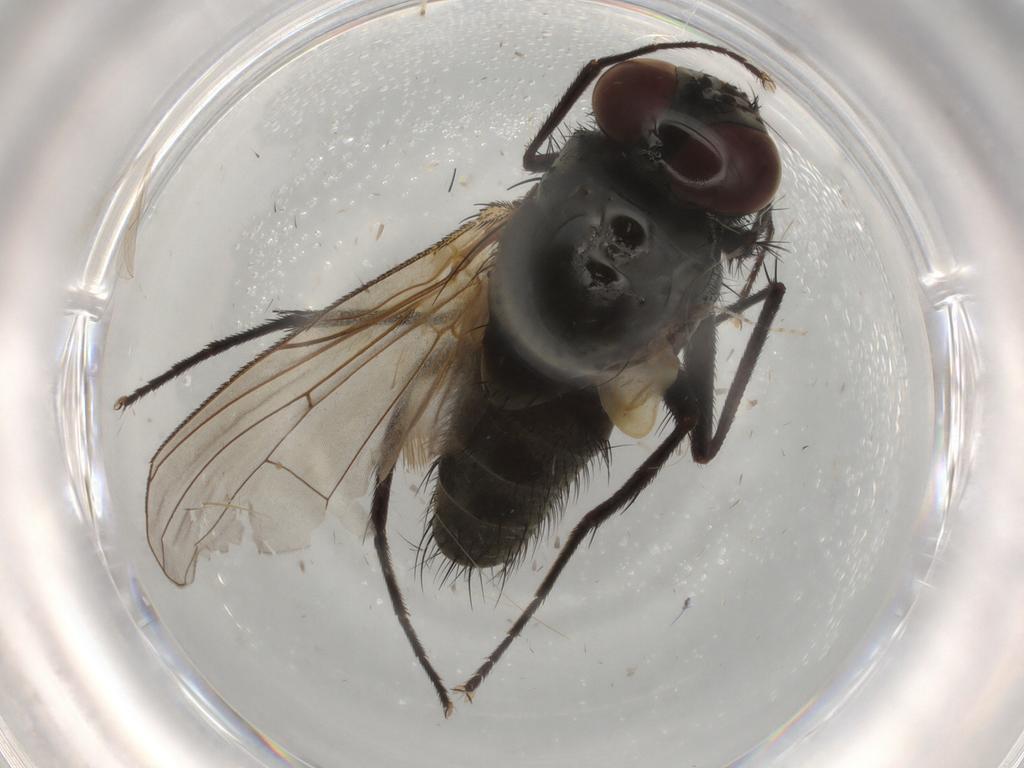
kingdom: Animalia
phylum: Arthropoda
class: Insecta
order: Diptera
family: Muscidae
